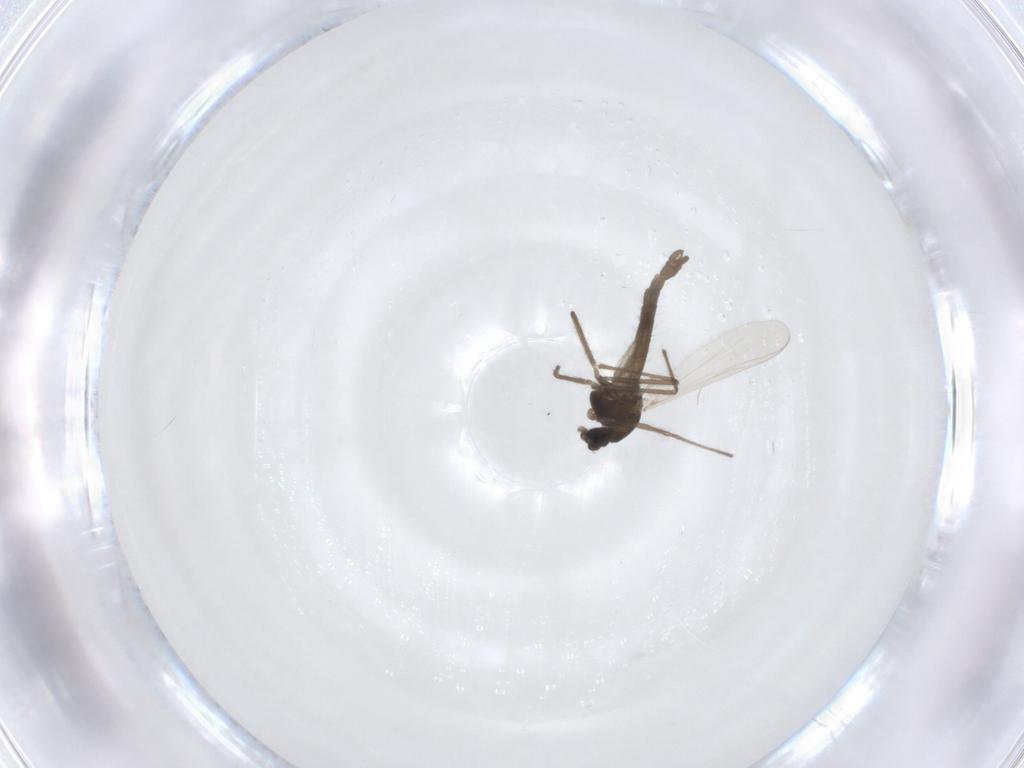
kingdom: Animalia
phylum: Arthropoda
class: Insecta
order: Diptera
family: Chironomidae
